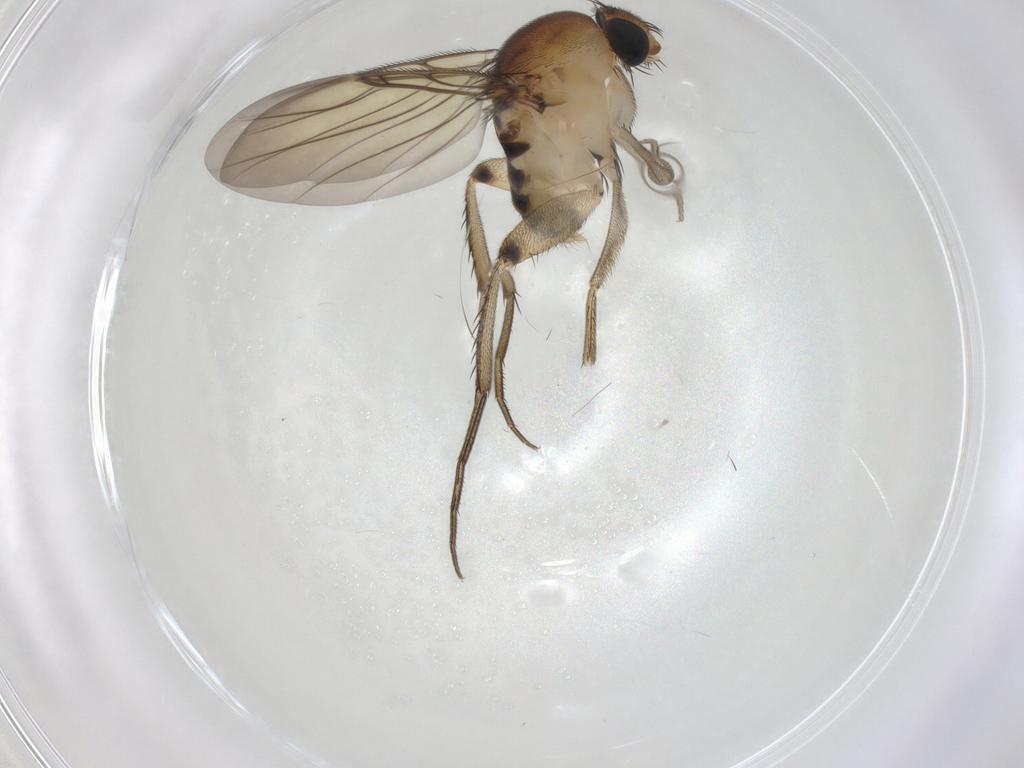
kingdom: Animalia
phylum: Arthropoda
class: Insecta
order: Diptera
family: Phoridae
